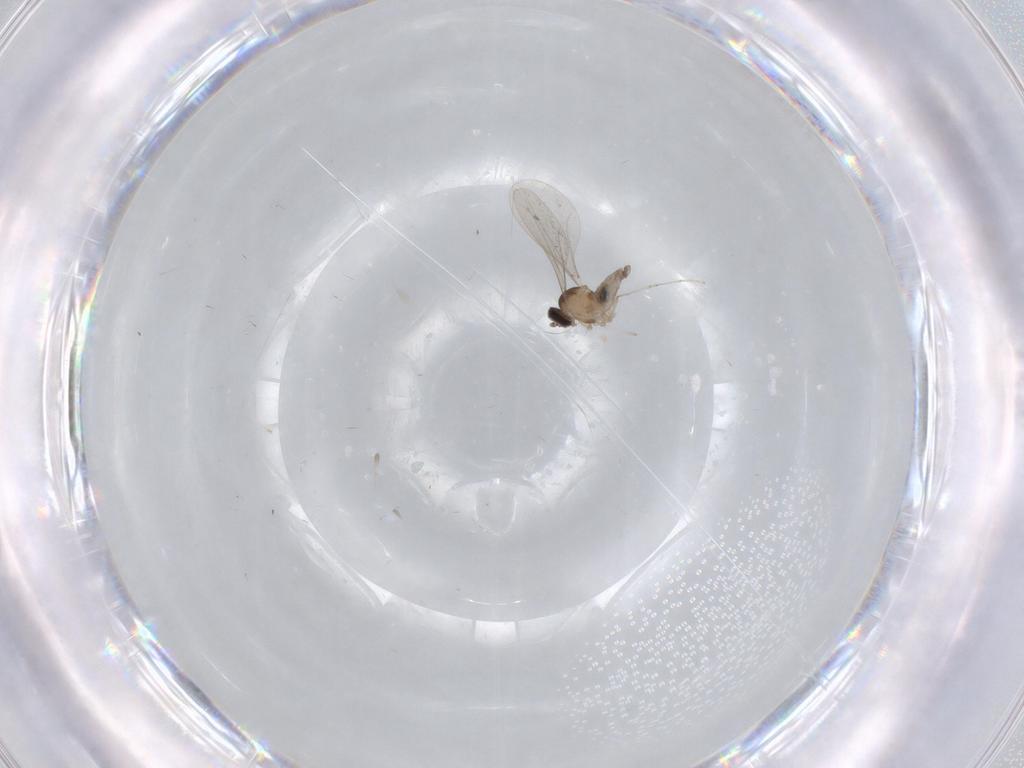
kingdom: Animalia
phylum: Arthropoda
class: Insecta
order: Diptera
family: Cecidomyiidae
